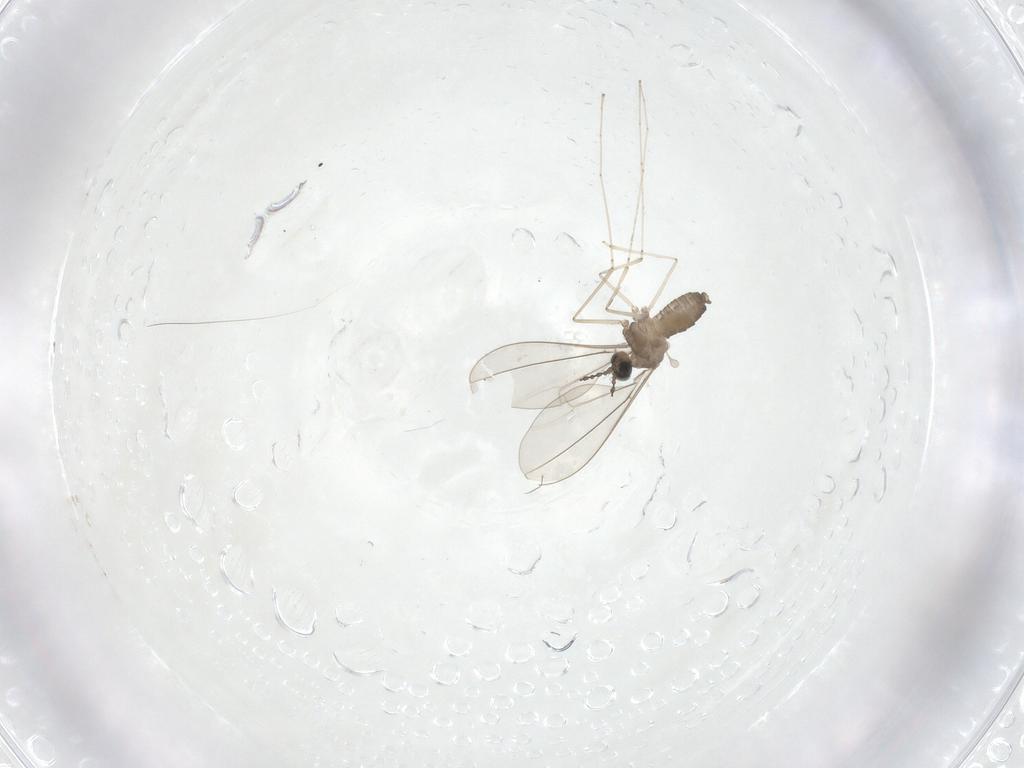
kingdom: Animalia
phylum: Arthropoda
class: Insecta
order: Diptera
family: Cecidomyiidae
